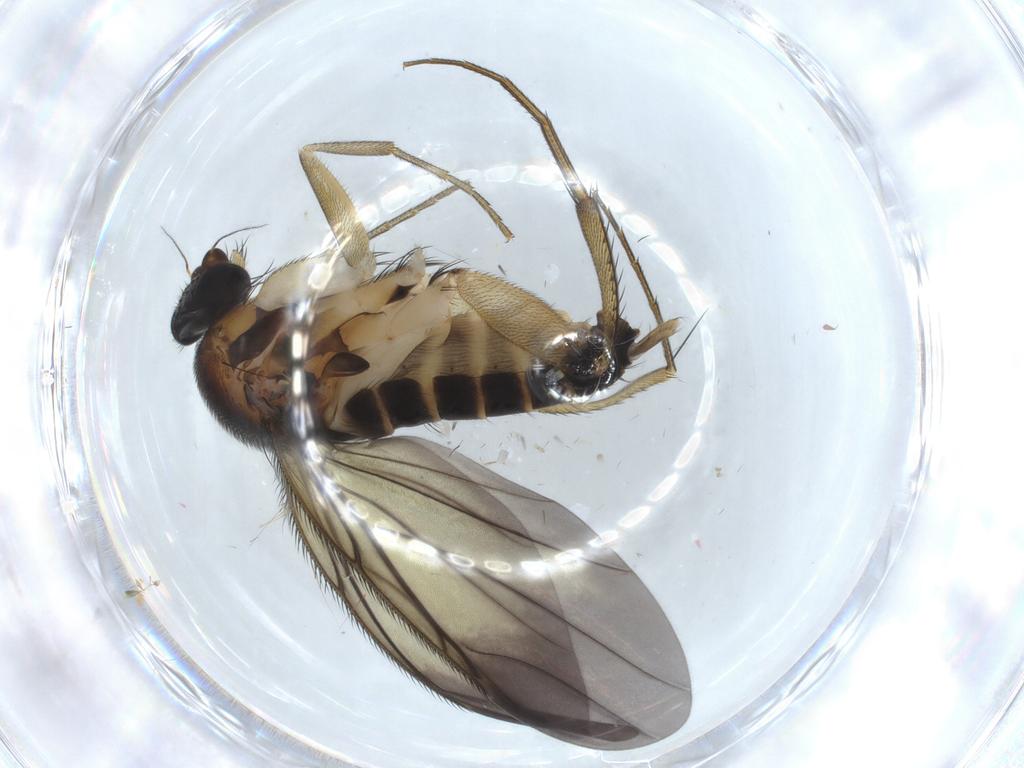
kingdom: Animalia
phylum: Arthropoda
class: Insecta
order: Diptera
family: Phoridae
